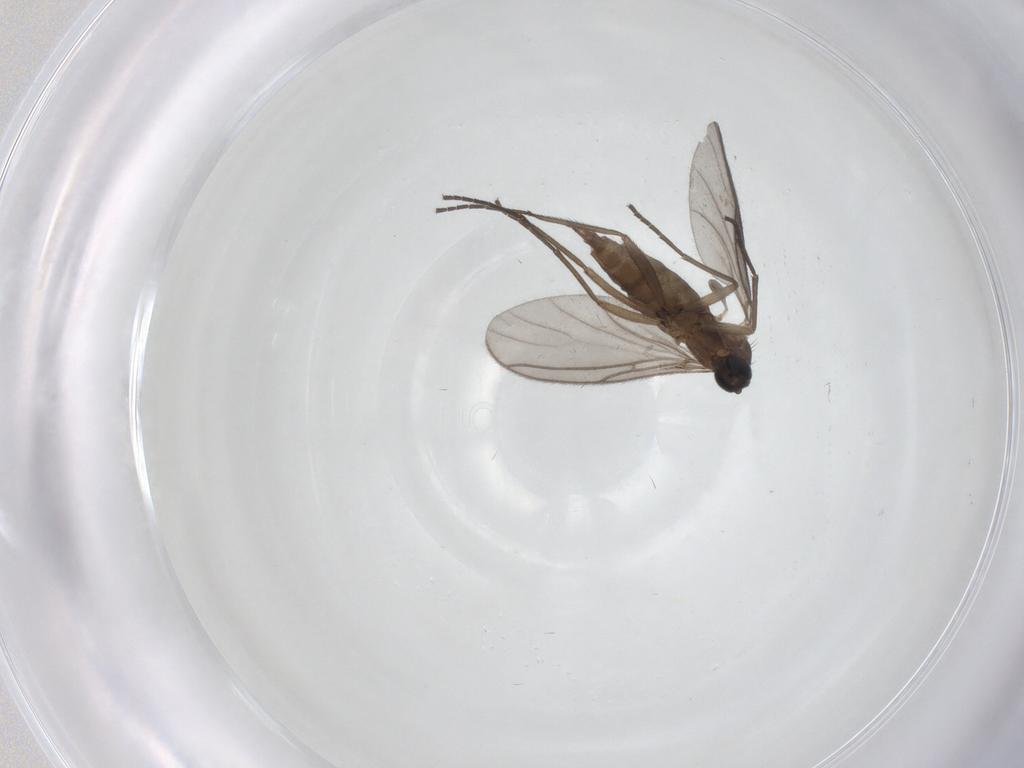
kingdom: Animalia
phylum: Arthropoda
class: Insecta
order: Diptera
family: Sciaridae
